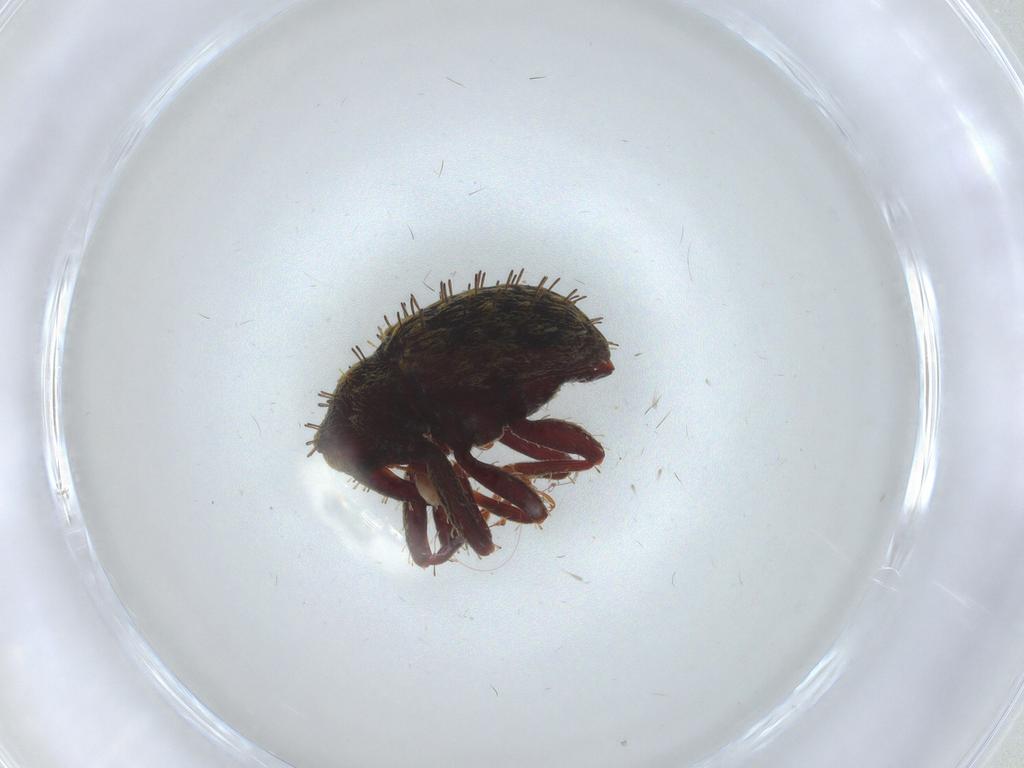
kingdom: Animalia
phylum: Arthropoda
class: Insecta
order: Coleoptera
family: Curculionidae
